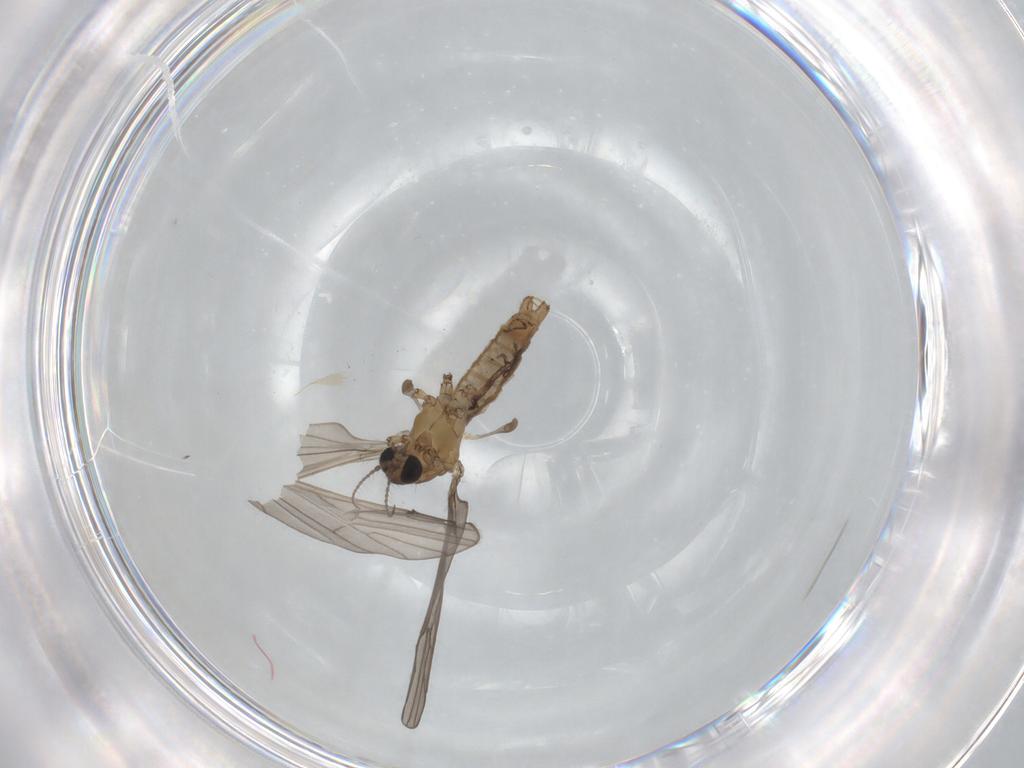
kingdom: Animalia
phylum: Arthropoda
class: Insecta
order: Diptera
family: Limoniidae
